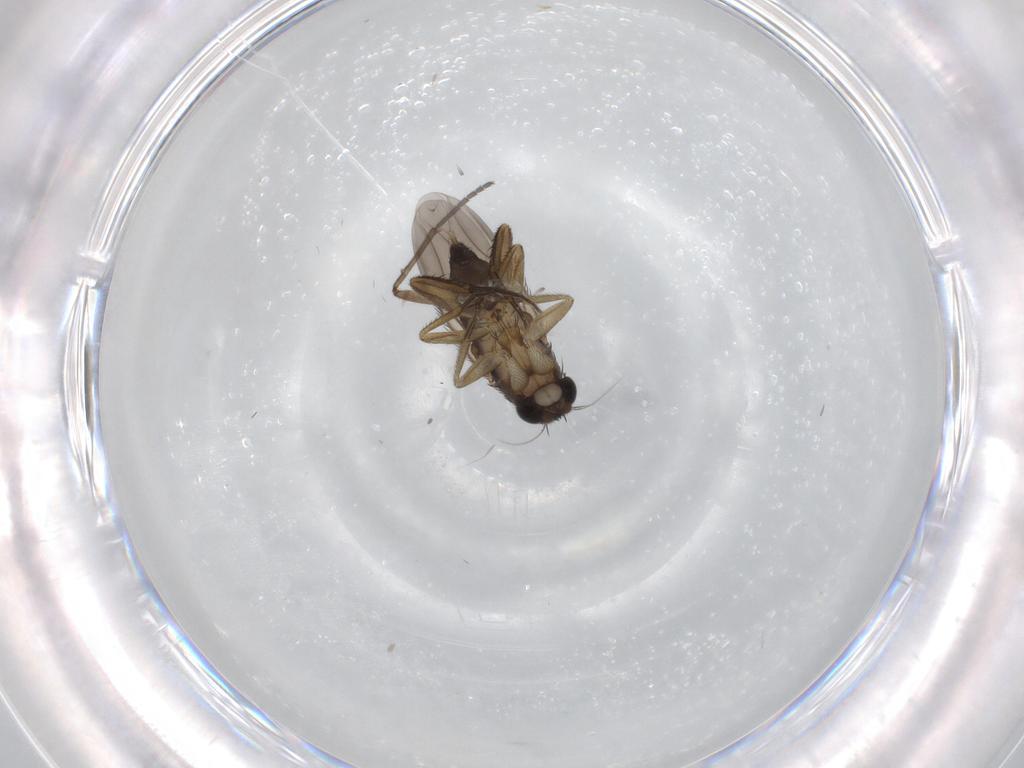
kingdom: Animalia
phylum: Arthropoda
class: Insecta
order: Diptera
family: Phoridae
